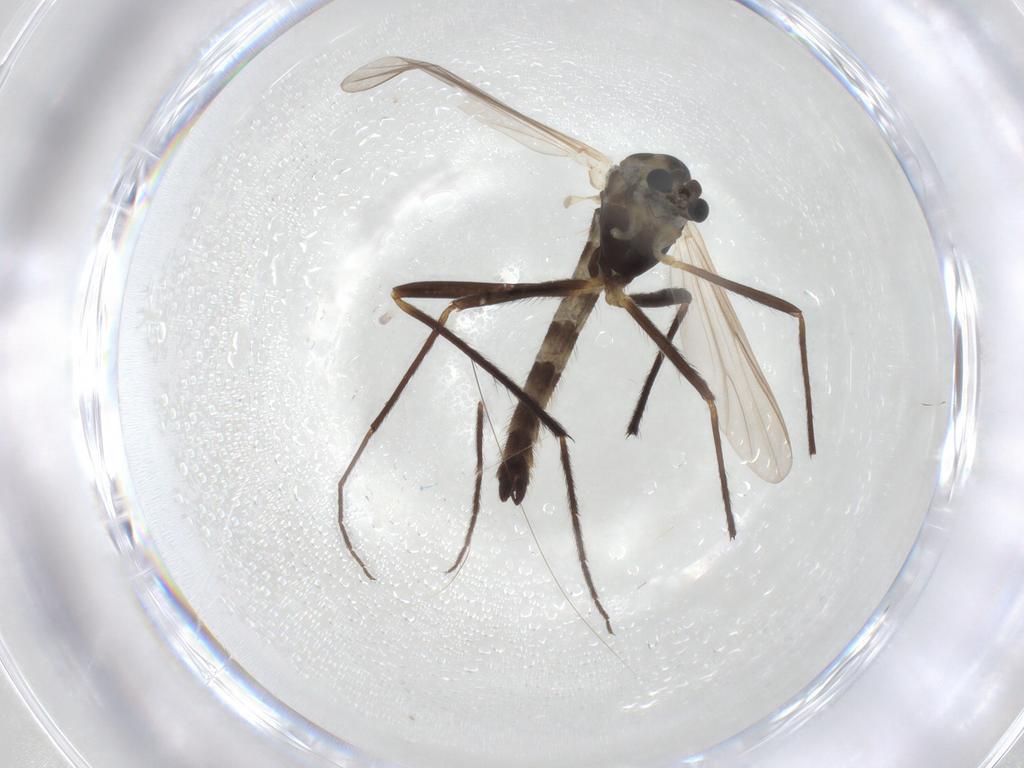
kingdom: Animalia
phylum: Arthropoda
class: Insecta
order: Diptera
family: Chironomidae
